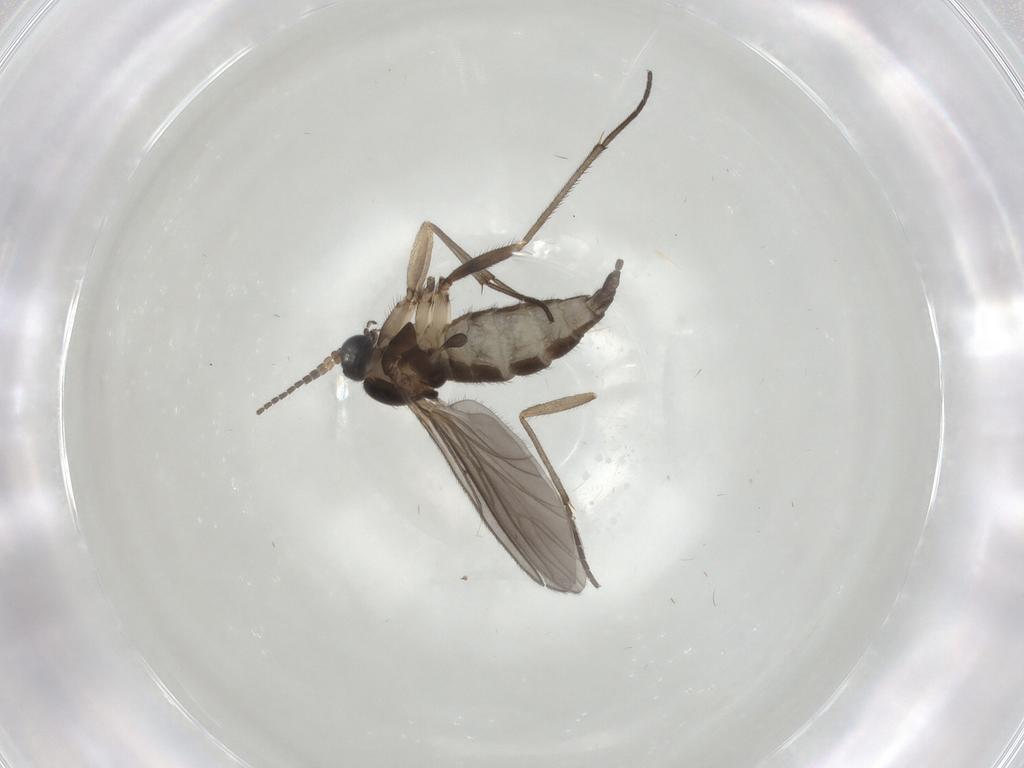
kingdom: Animalia
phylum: Arthropoda
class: Insecta
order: Diptera
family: Sciaridae
